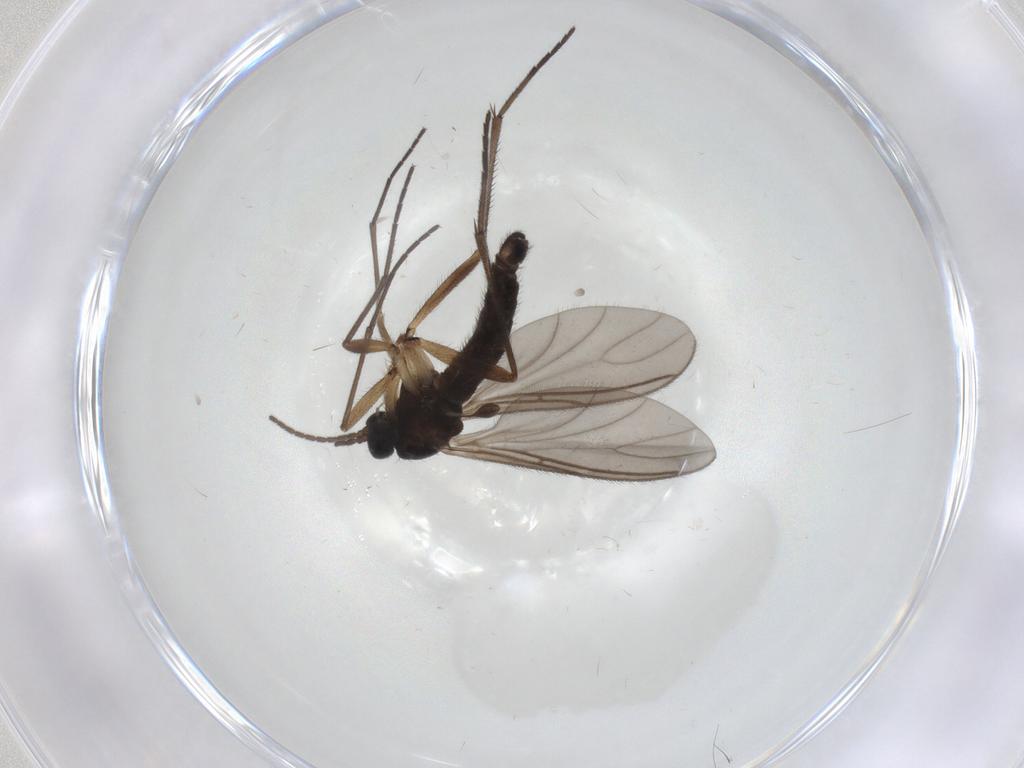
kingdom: Animalia
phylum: Arthropoda
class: Insecta
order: Diptera
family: Sciaridae
